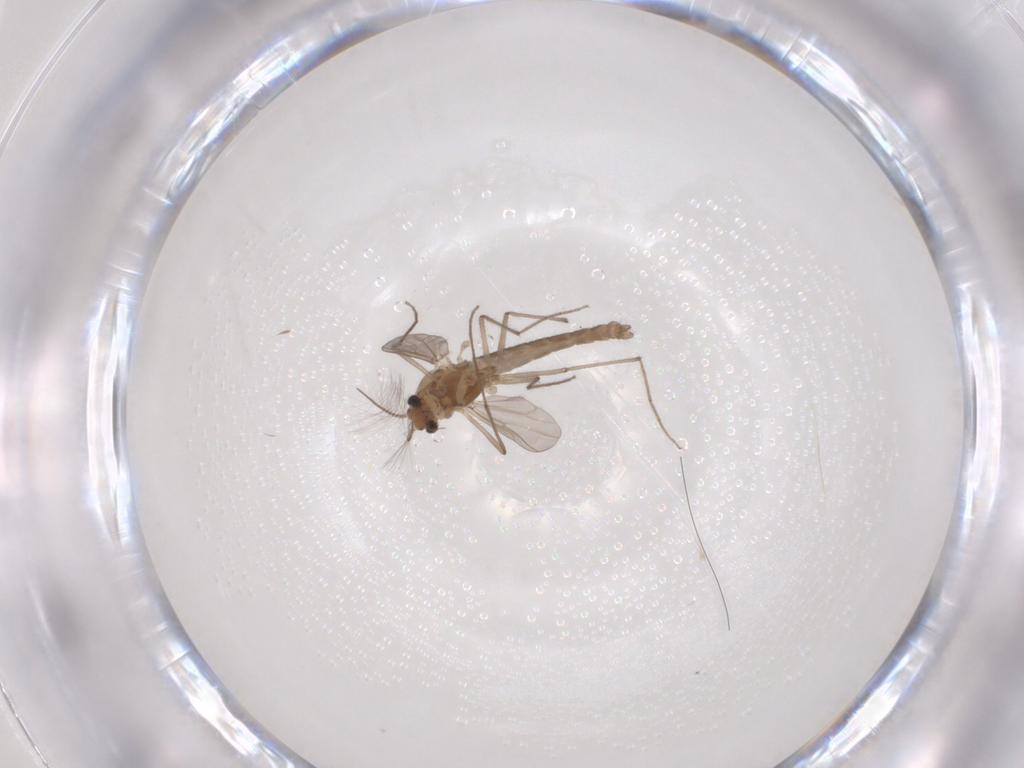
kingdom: Animalia
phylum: Arthropoda
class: Insecta
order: Diptera
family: Chironomidae
